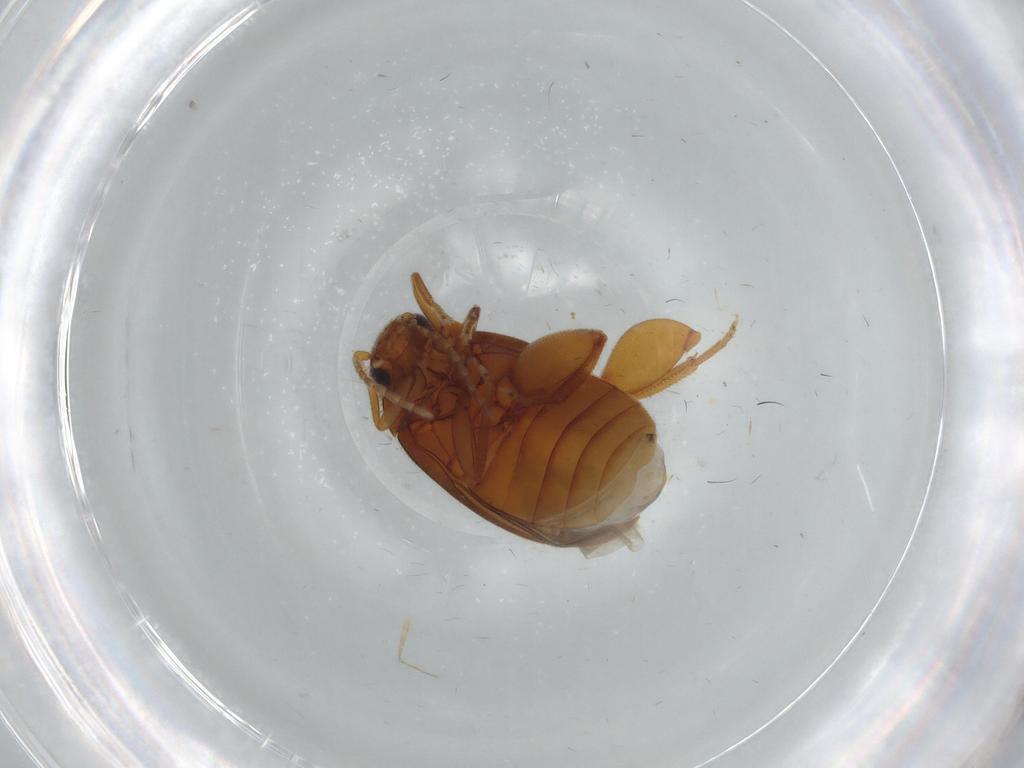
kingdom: Animalia
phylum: Arthropoda
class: Insecta
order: Coleoptera
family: Scirtidae
